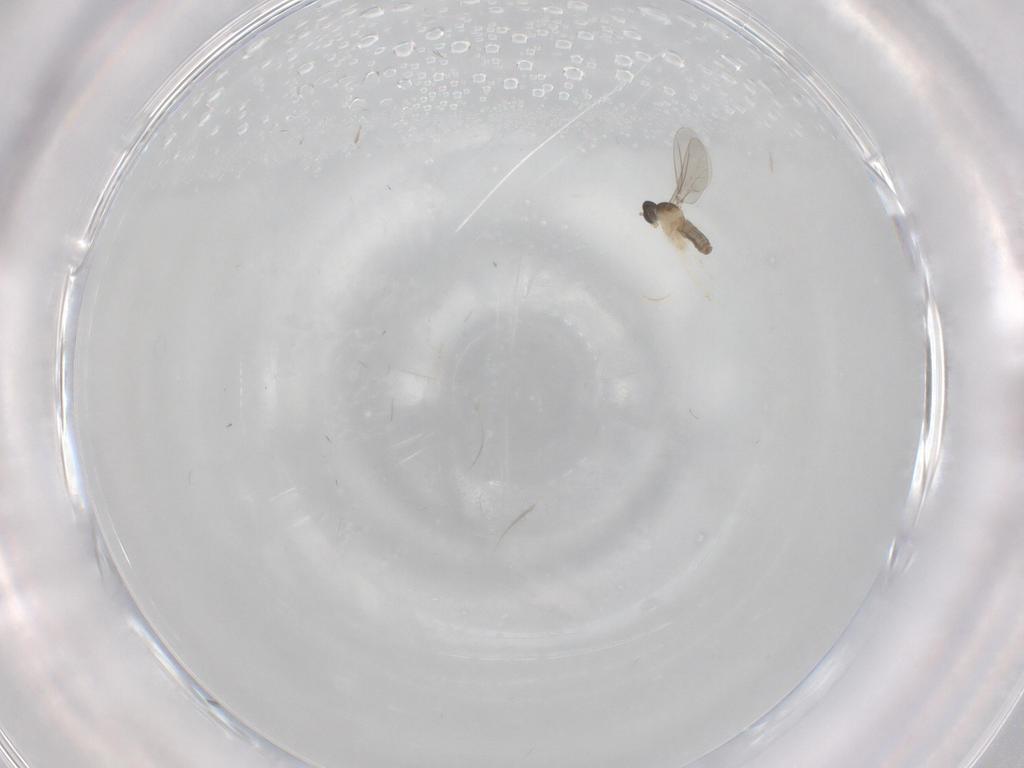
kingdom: Animalia
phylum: Arthropoda
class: Insecta
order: Diptera
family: Cecidomyiidae
